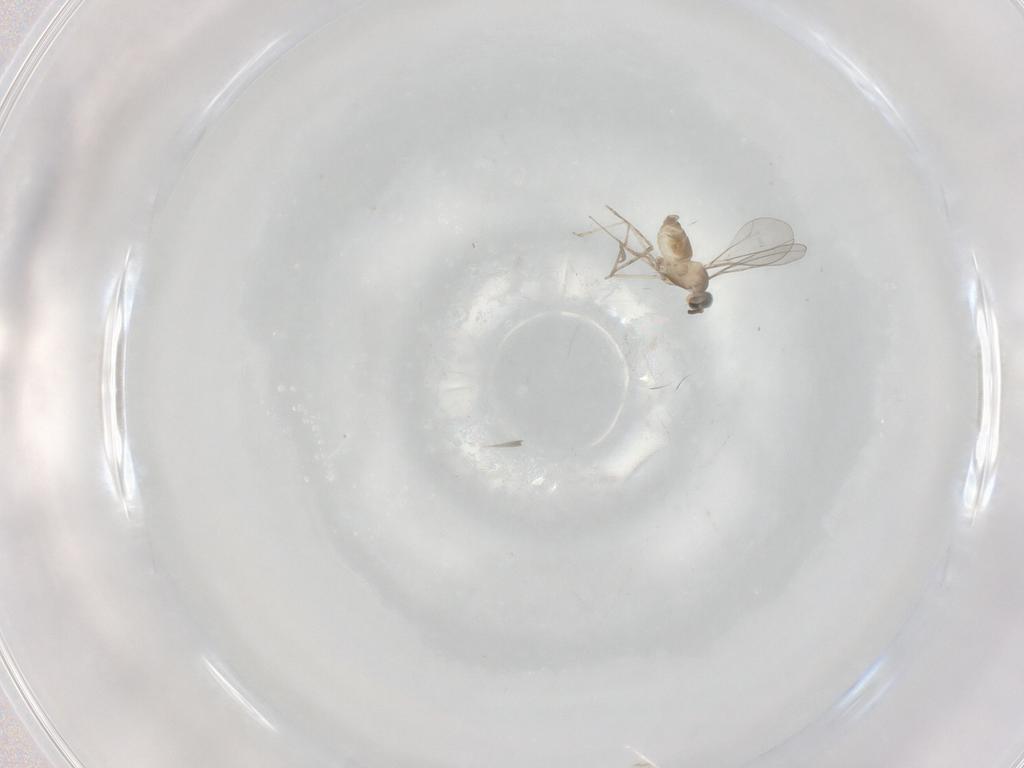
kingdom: Animalia
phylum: Arthropoda
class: Insecta
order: Diptera
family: Cecidomyiidae
